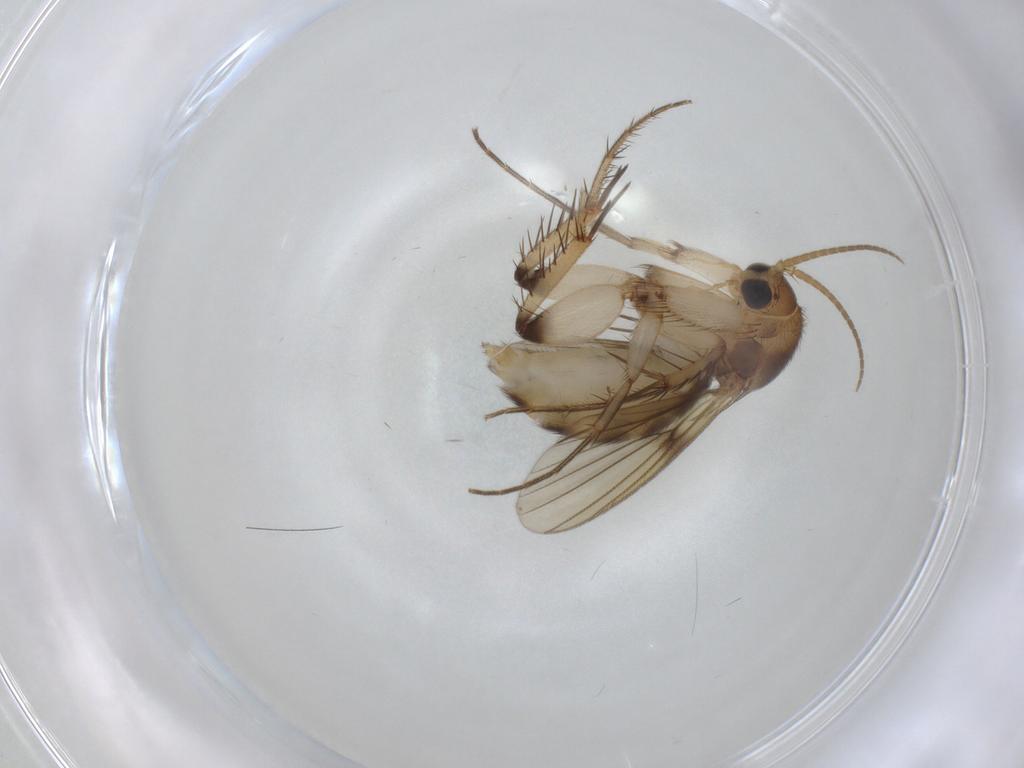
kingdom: Animalia
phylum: Arthropoda
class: Insecta
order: Diptera
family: Mycetophilidae
